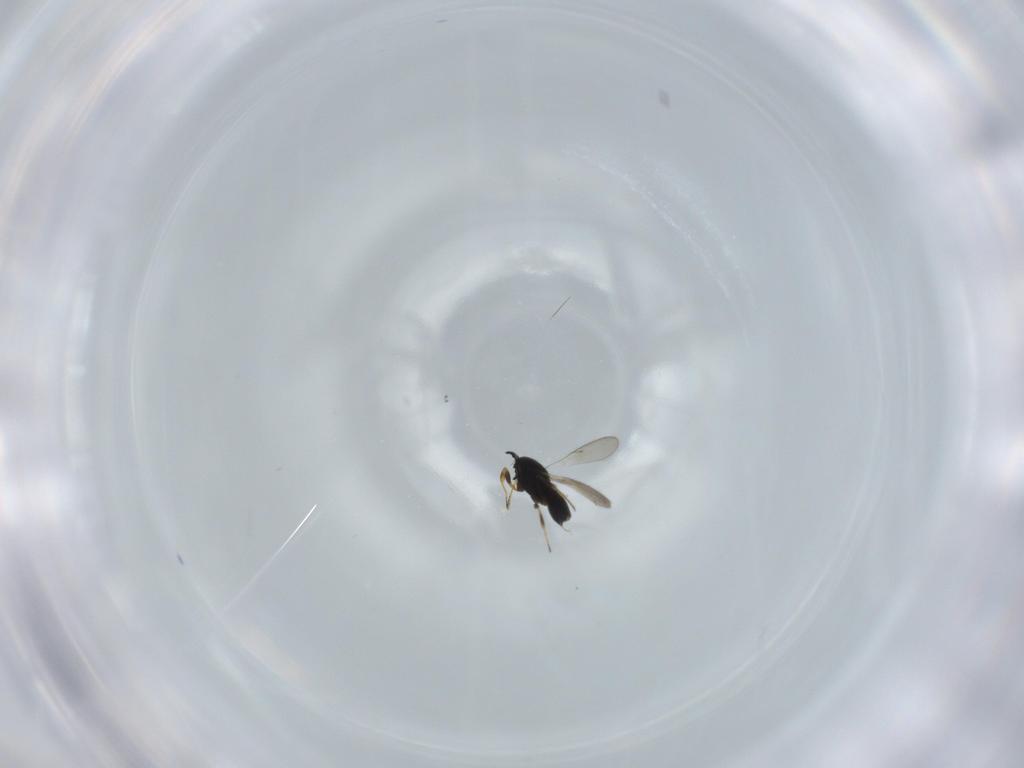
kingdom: Animalia
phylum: Arthropoda
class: Insecta
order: Hymenoptera
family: Scelionidae
